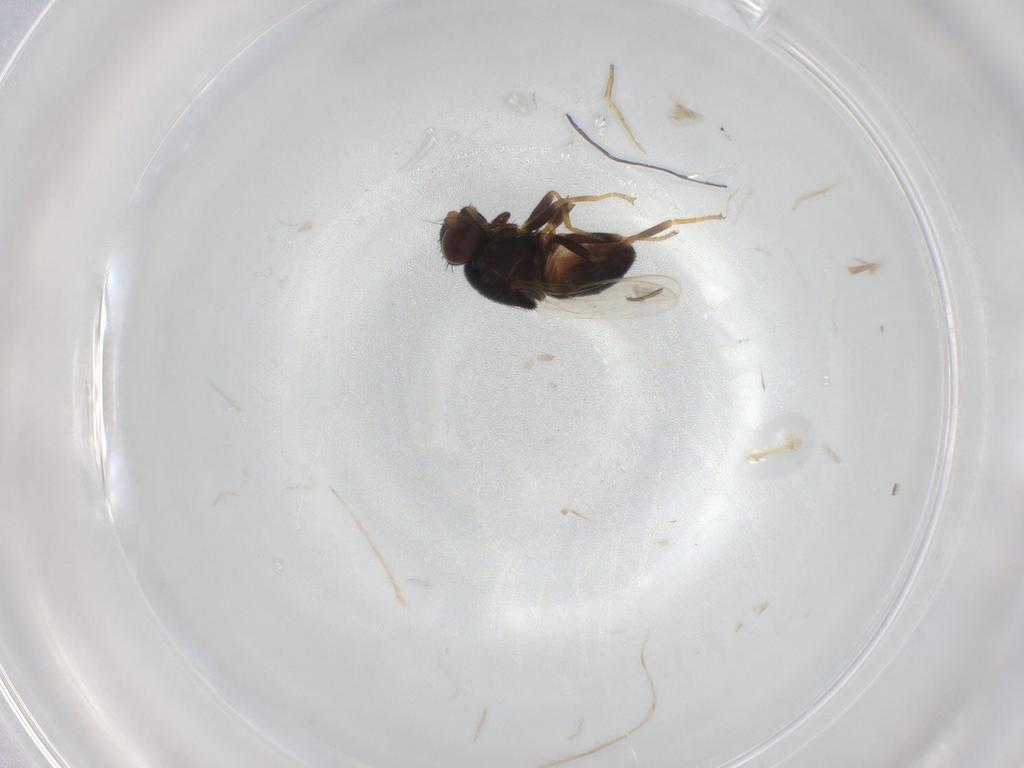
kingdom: Animalia
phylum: Arthropoda
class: Insecta
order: Diptera
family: Chloropidae
